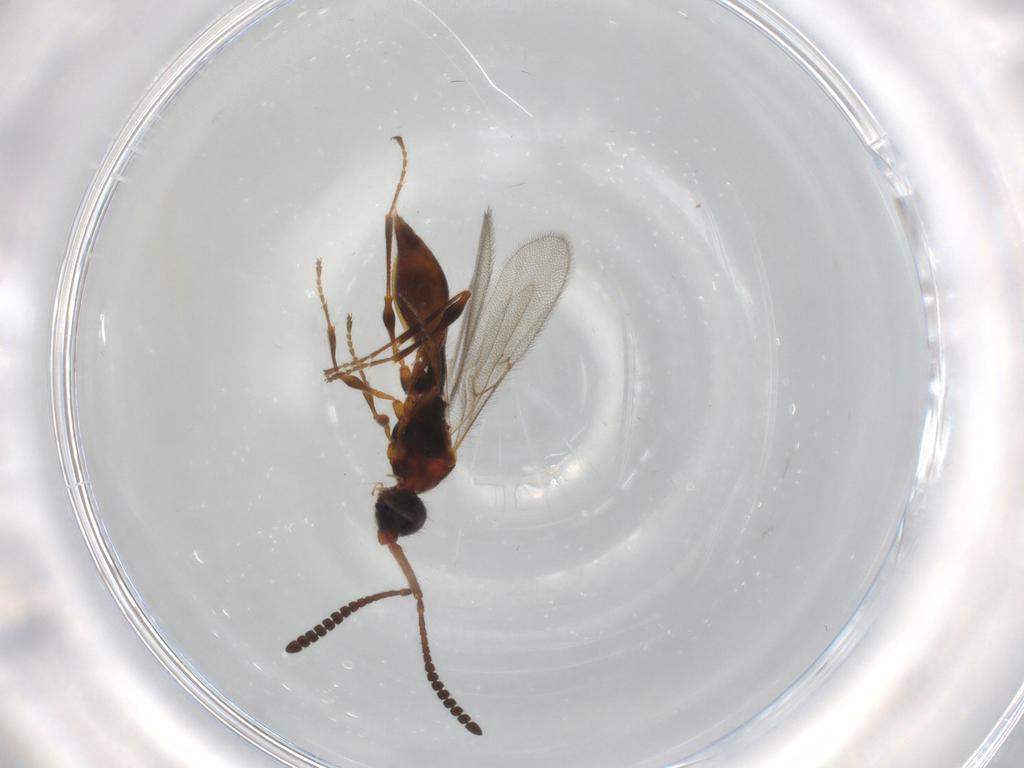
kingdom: Animalia
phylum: Arthropoda
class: Insecta
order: Hymenoptera
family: Diapriidae
